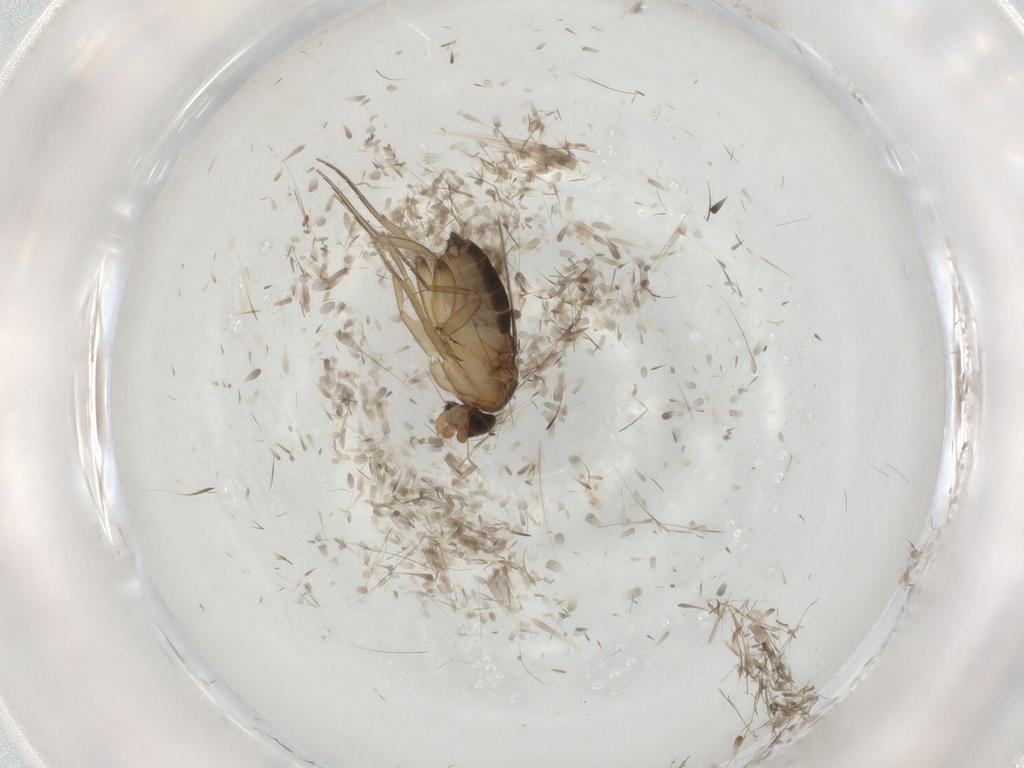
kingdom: Animalia
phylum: Arthropoda
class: Insecta
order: Diptera
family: Phoridae
